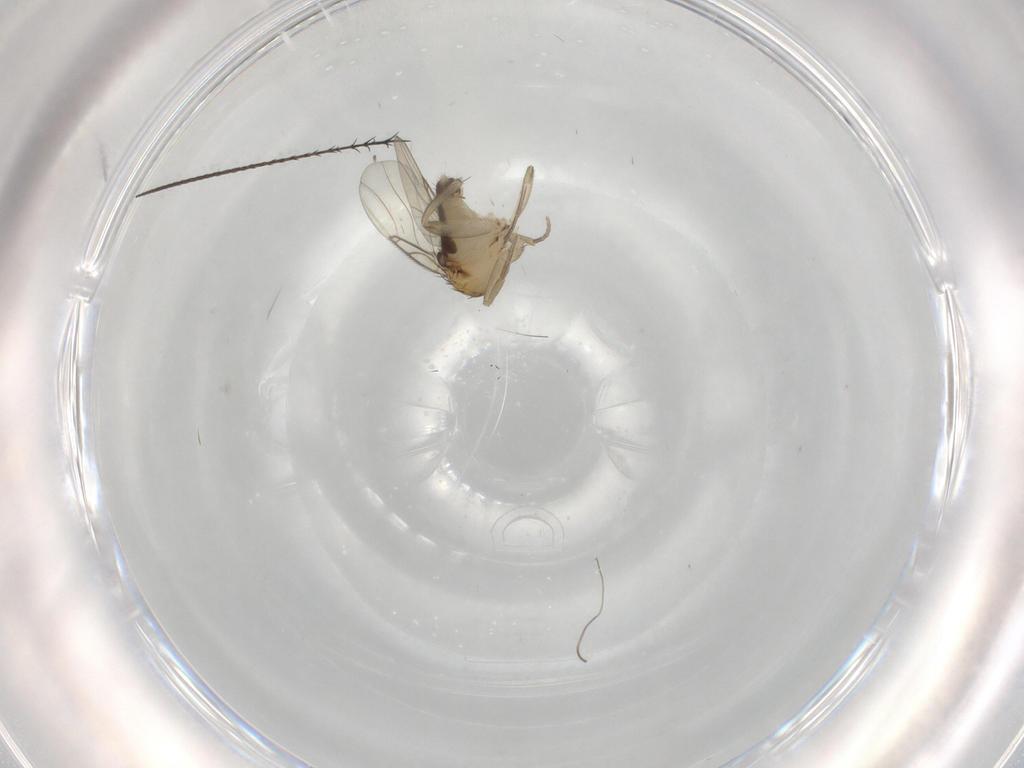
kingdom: Animalia
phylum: Arthropoda
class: Insecta
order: Diptera
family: Phoridae
